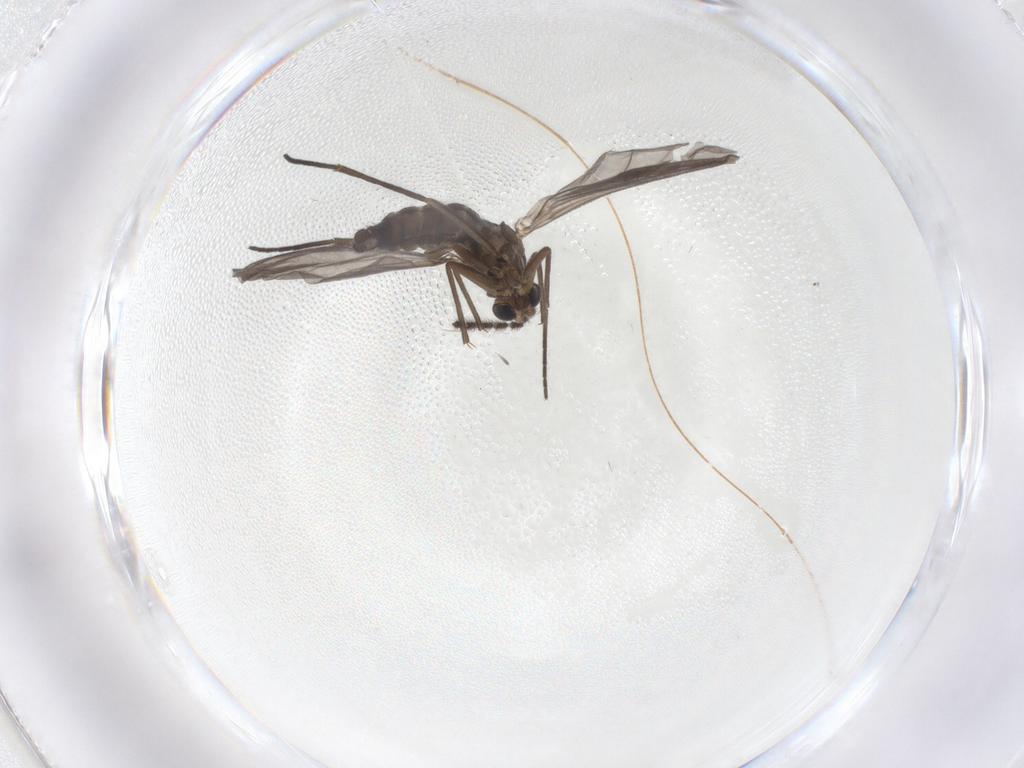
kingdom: Animalia
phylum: Arthropoda
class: Insecta
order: Diptera
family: Sciaridae
